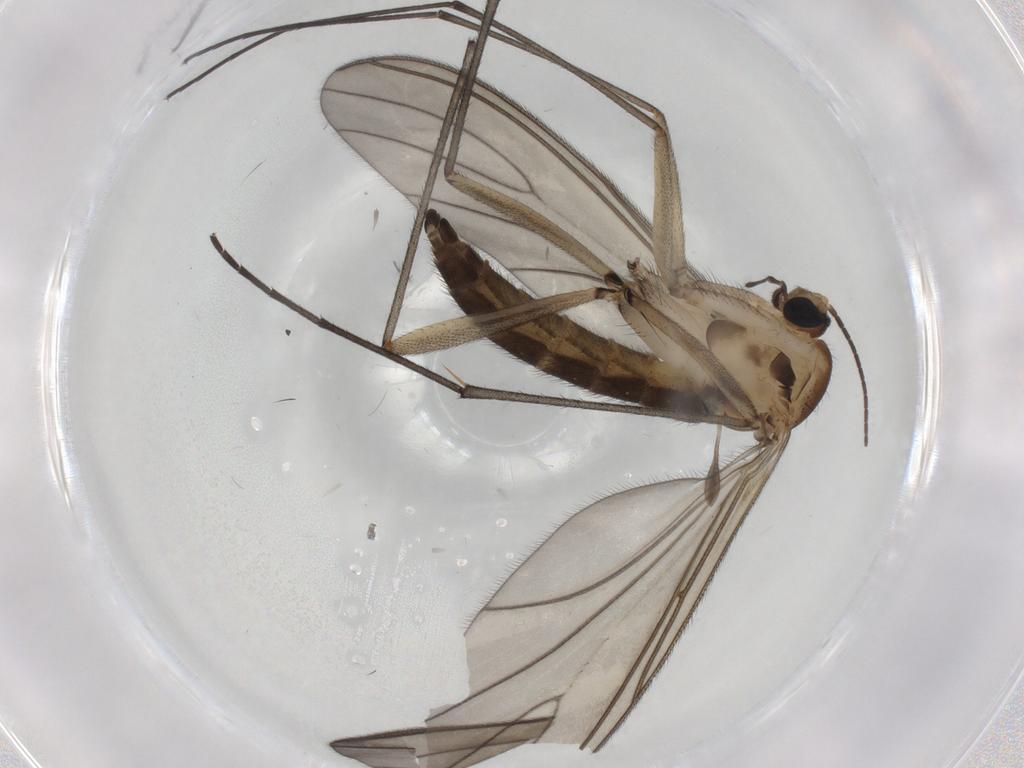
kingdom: Animalia
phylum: Arthropoda
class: Insecta
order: Diptera
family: Sciaridae
